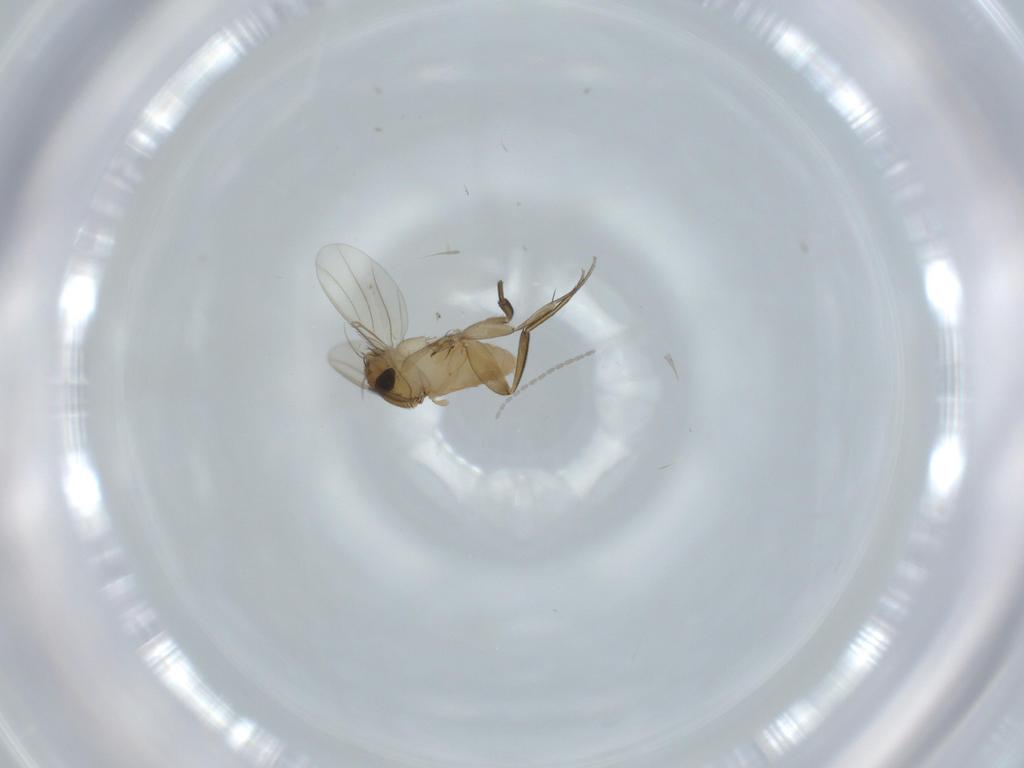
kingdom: Animalia
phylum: Arthropoda
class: Insecta
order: Diptera
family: Phoridae
